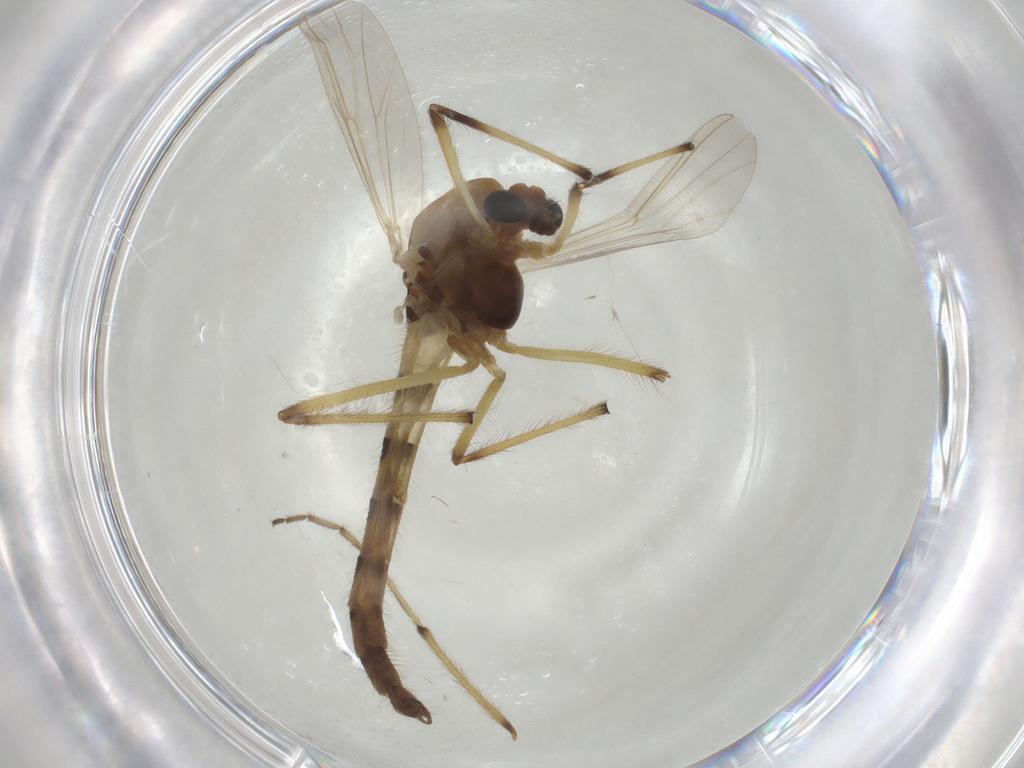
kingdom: Animalia
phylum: Arthropoda
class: Insecta
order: Diptera
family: Chironomidae
